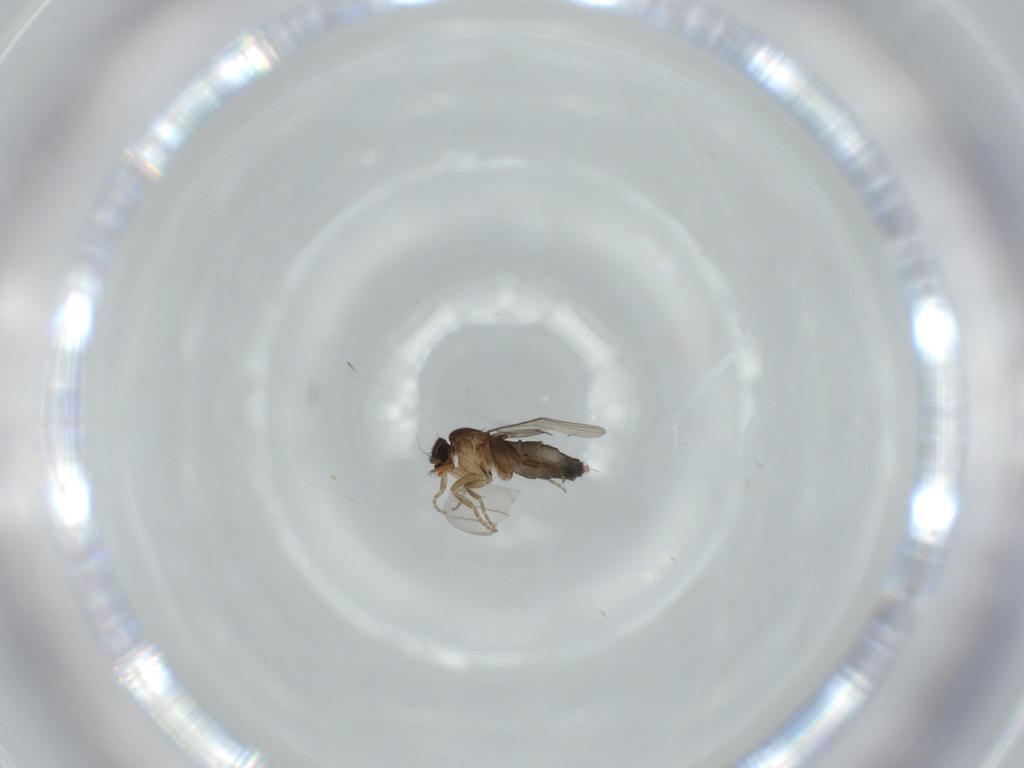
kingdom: Animalia
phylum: Arthropoda
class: Insecta
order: Diptera
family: Phoridae
